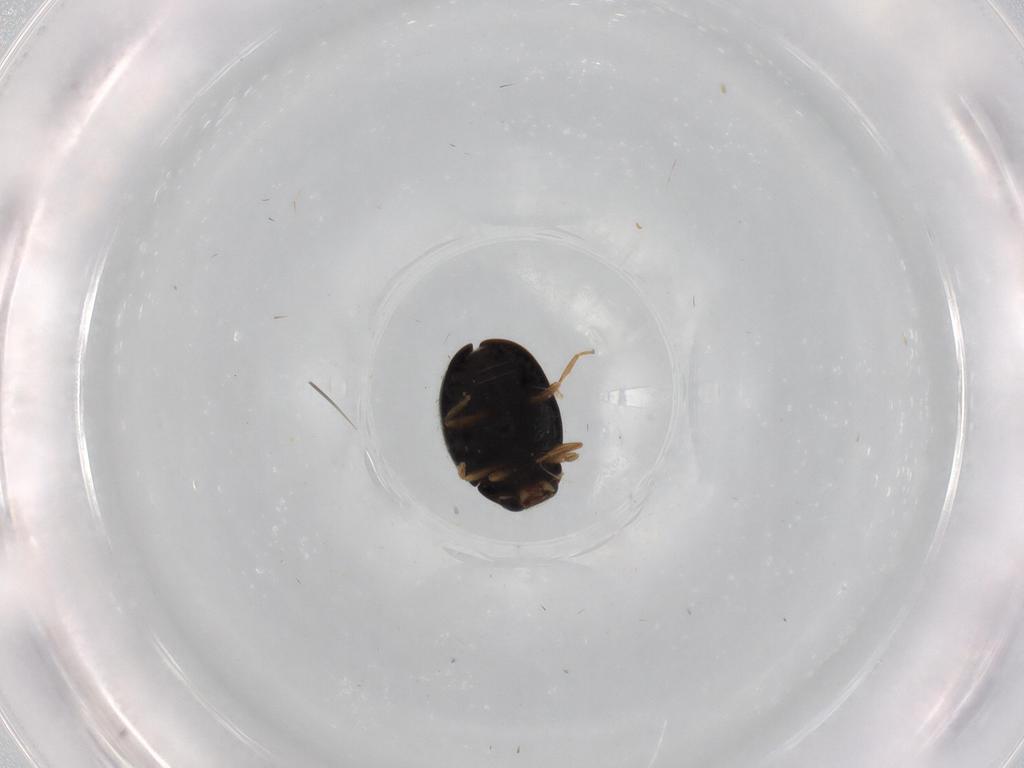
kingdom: Animalia
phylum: Arthropoda
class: Insecta
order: Coleoptera
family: Coccinellidae
